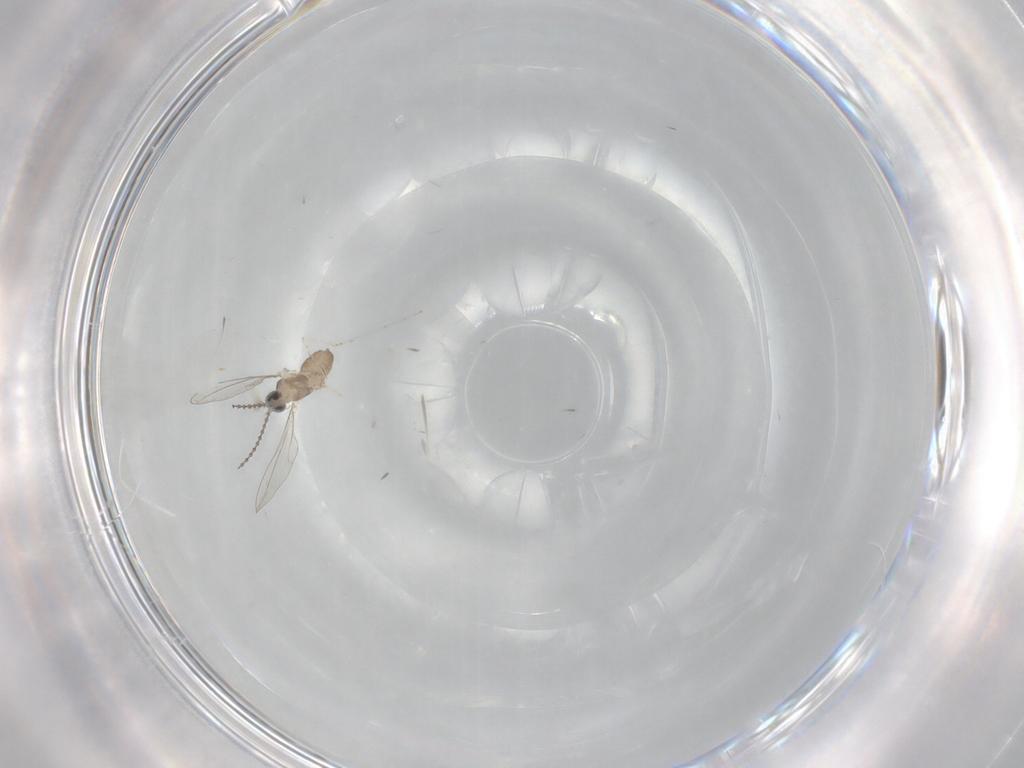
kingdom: Animalia
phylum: Arthropoda
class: Insecta
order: Diptera
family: Cecidomyiidae
